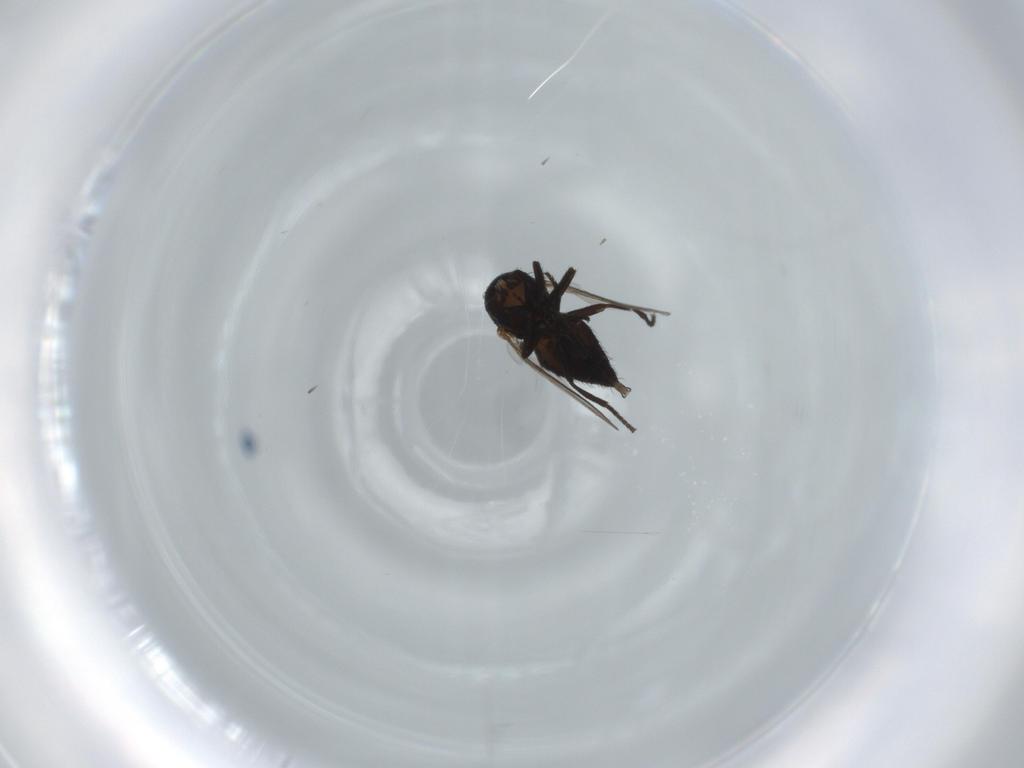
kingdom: Animalia
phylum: Arthropoda
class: Insecta
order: Diptera
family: Agromyzidae
